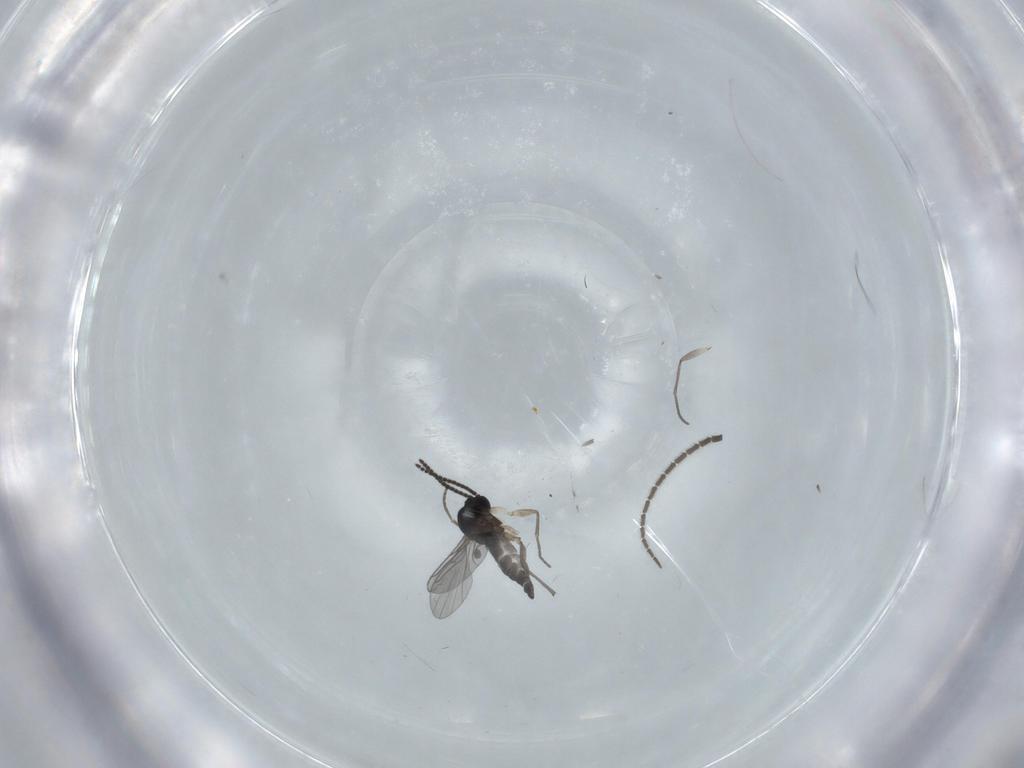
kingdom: Animalia
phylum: Arthropoda
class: Insecta
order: Diptera
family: Sciaridae
